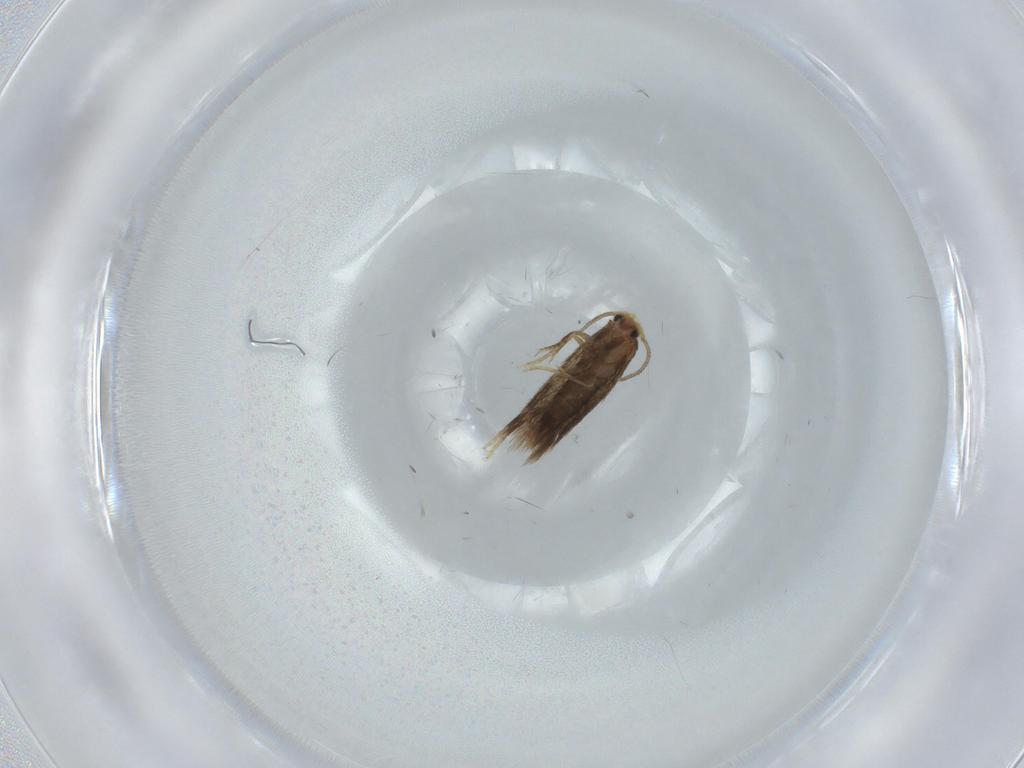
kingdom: Animalia
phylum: Arthropoda
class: Insecta
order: Lepidoptera
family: Nepticulidae
